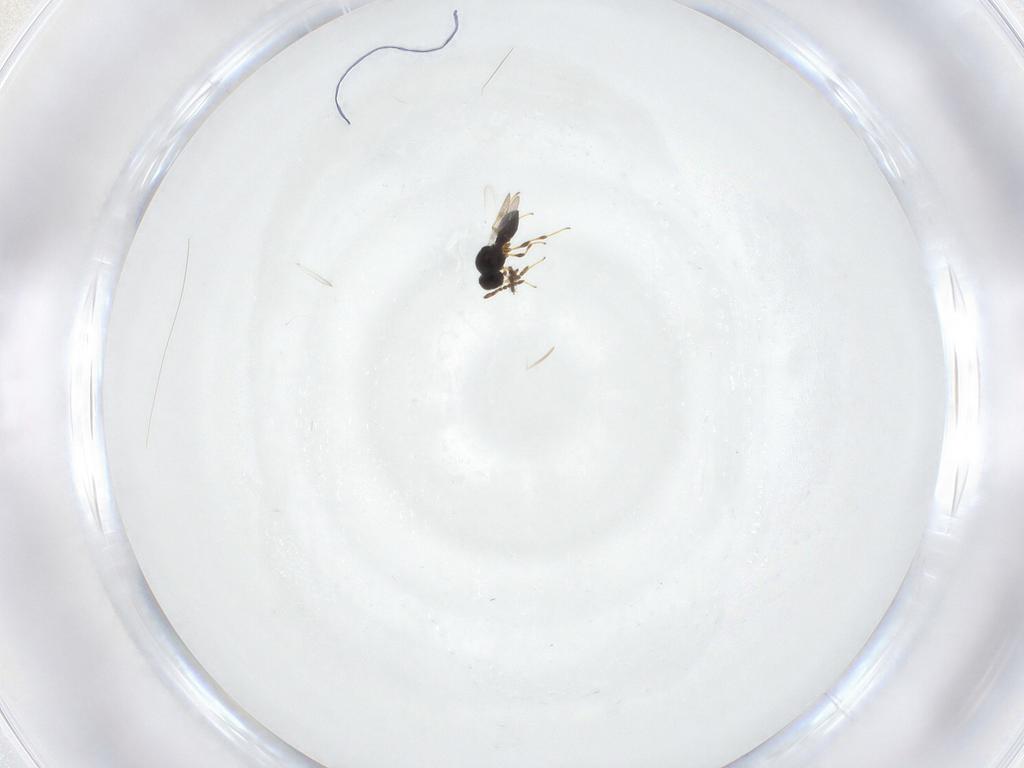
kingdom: Animalia
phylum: Arthropoda
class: Insecta
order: Hymenoptera
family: Platygastridae
